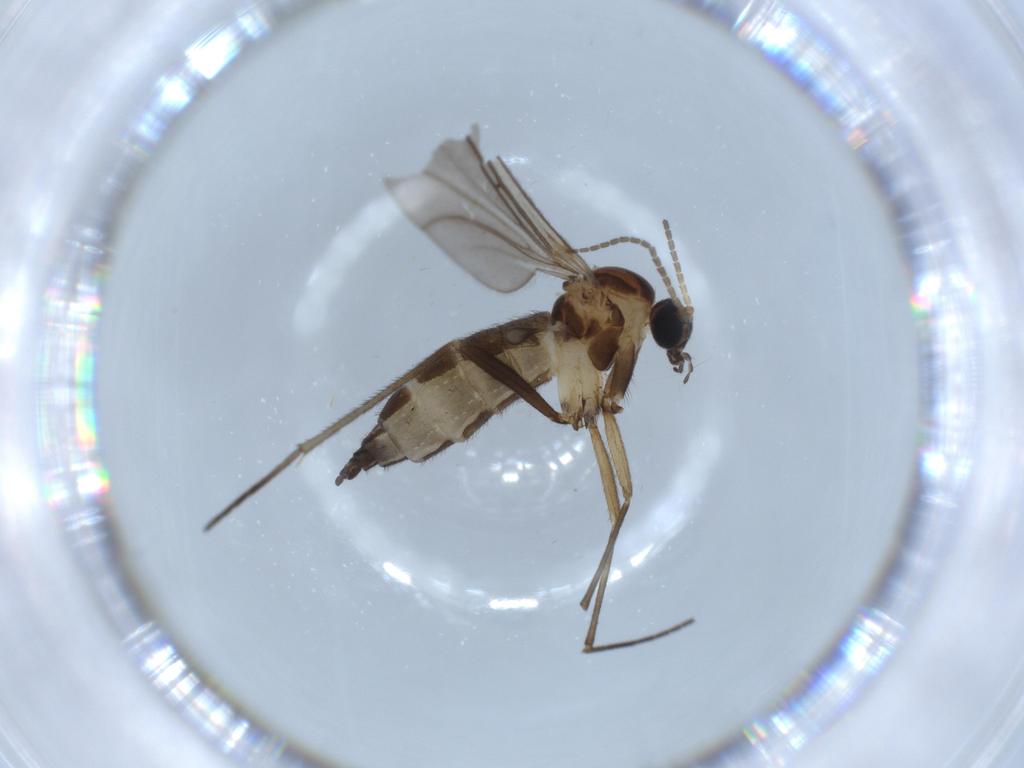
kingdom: Animalia
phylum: Arthropoda
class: Insecta
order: Diptera
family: Sciaridae
